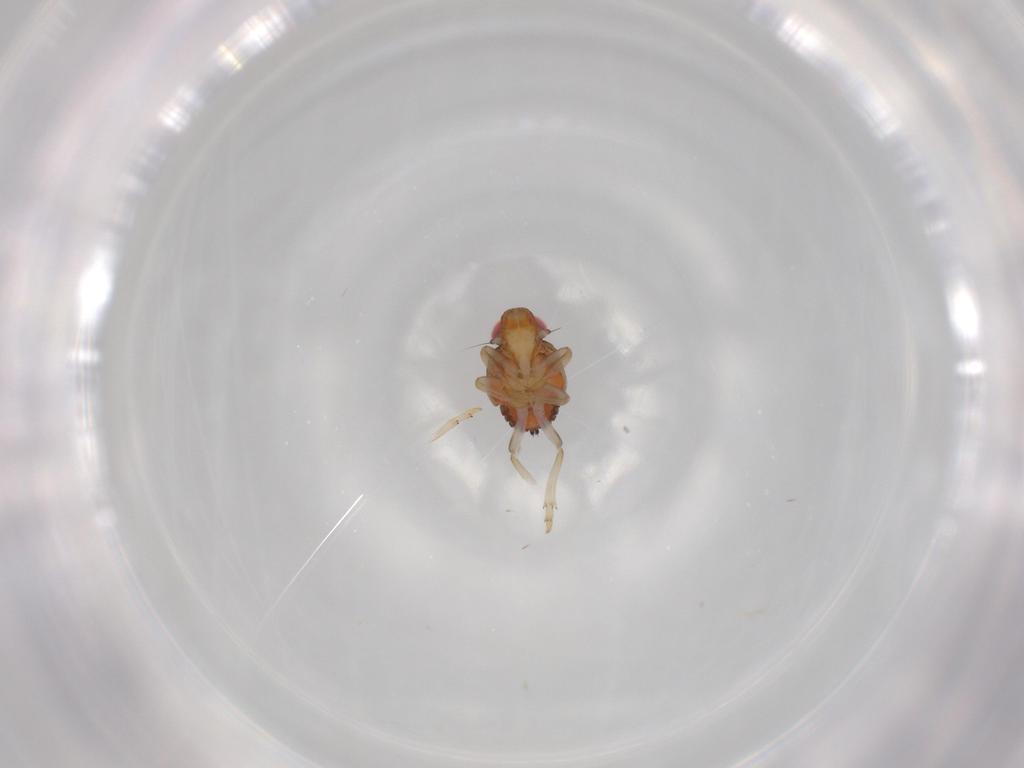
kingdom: Animalia
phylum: Arthropoda
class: Insecta
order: Hemiptera
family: Issidae
